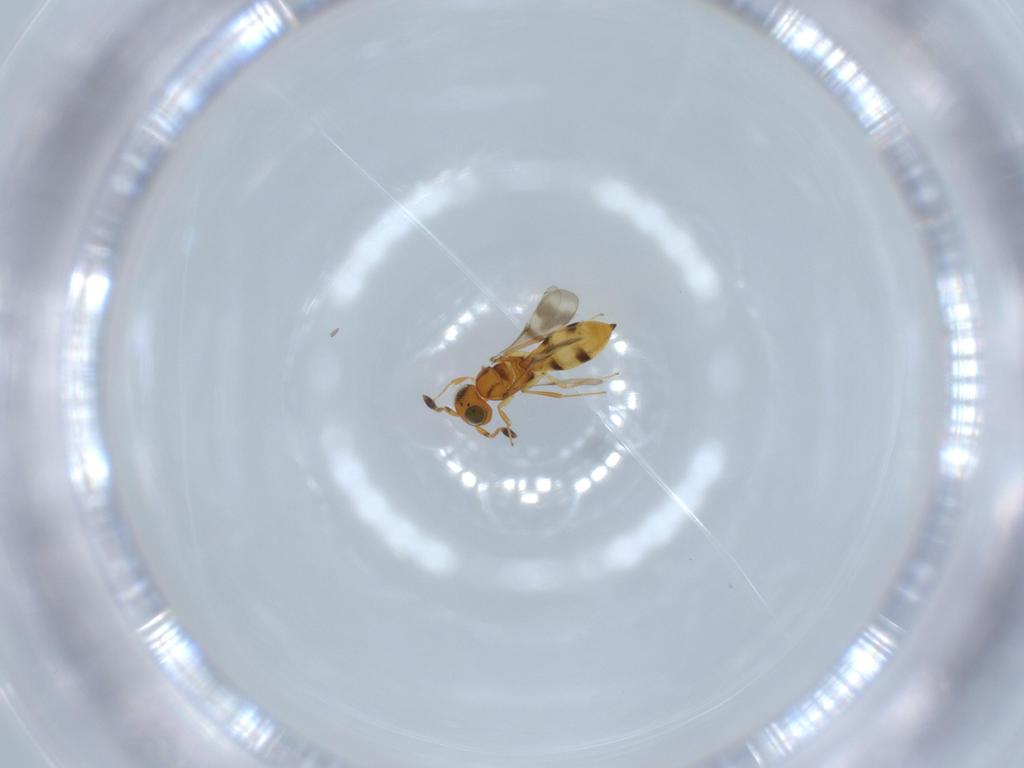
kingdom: Animalia
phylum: Arthropoda
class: Insecta
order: Hymenoptera
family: Scelionidae
